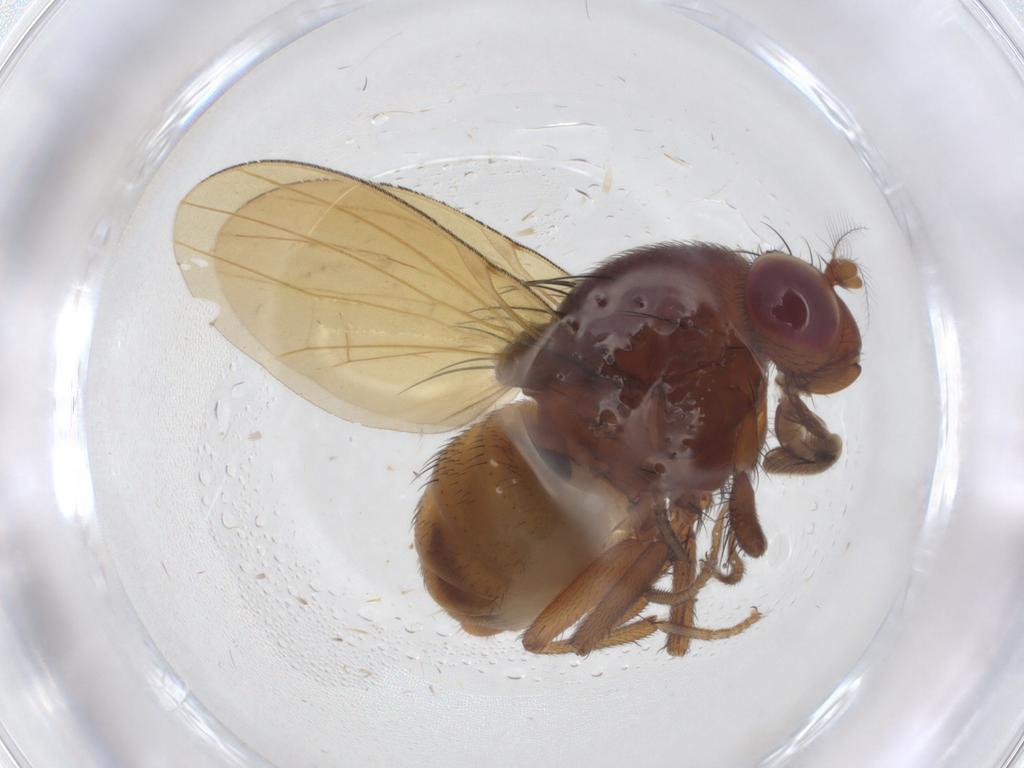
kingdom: Animalia
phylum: Arthropoda
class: Insecta
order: Diptera
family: Lauxaniidae
